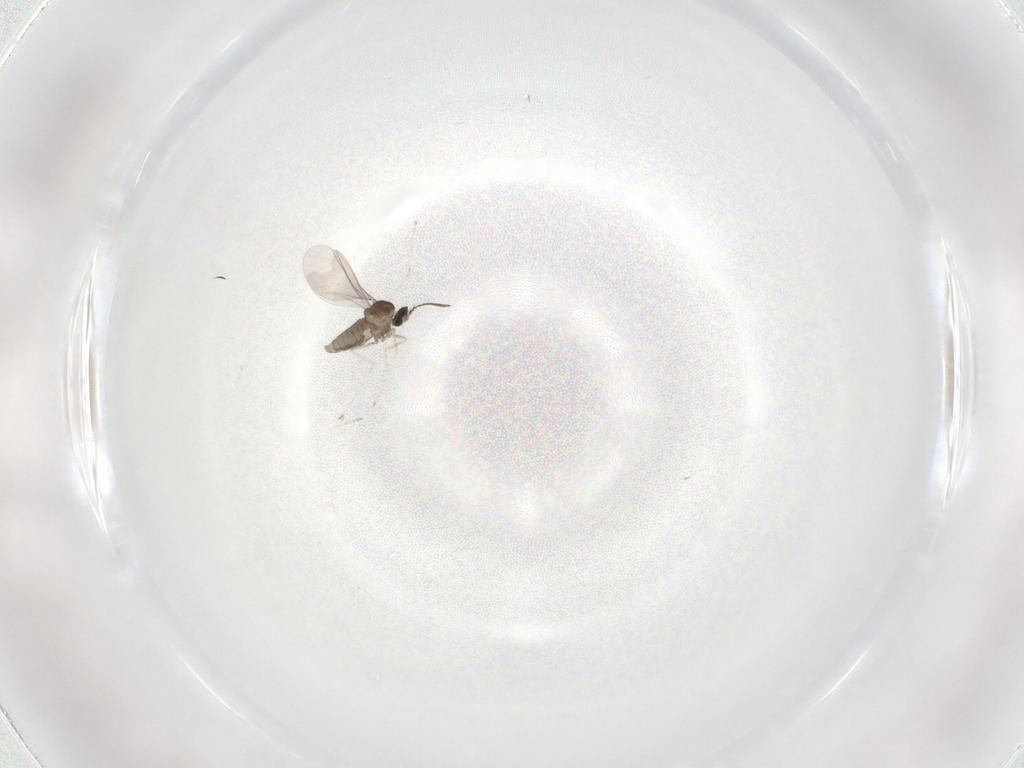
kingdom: Animalia
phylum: Arthropoda
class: Insecta
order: Diptera
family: Cecidomyiidae
